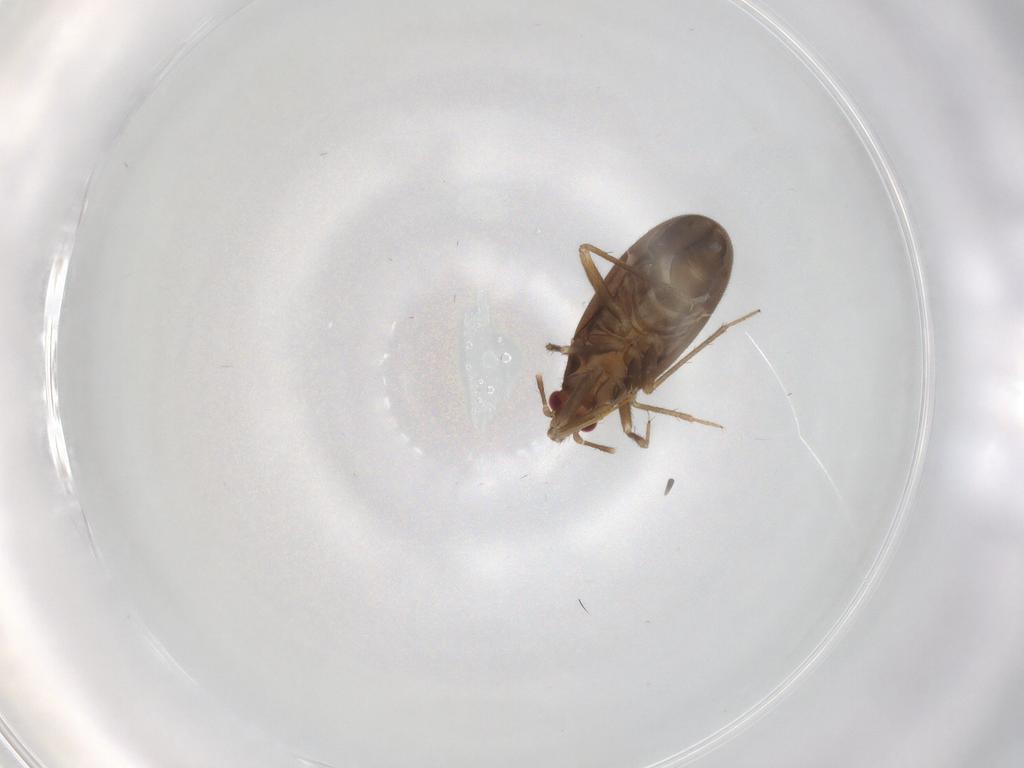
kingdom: Animalia
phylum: Arthropoda
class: Insecta
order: Hemiptera
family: Ceratocombidae
